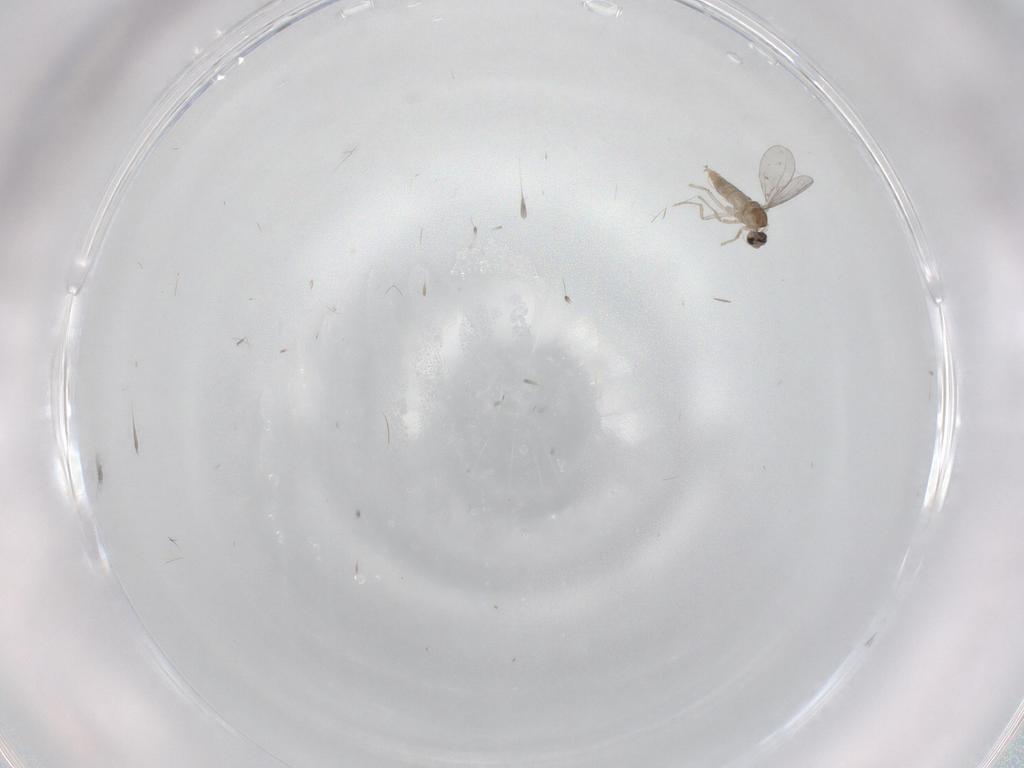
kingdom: Animalia
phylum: Arthropoda
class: Insecta
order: Diptera
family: Cecidomyiidae
